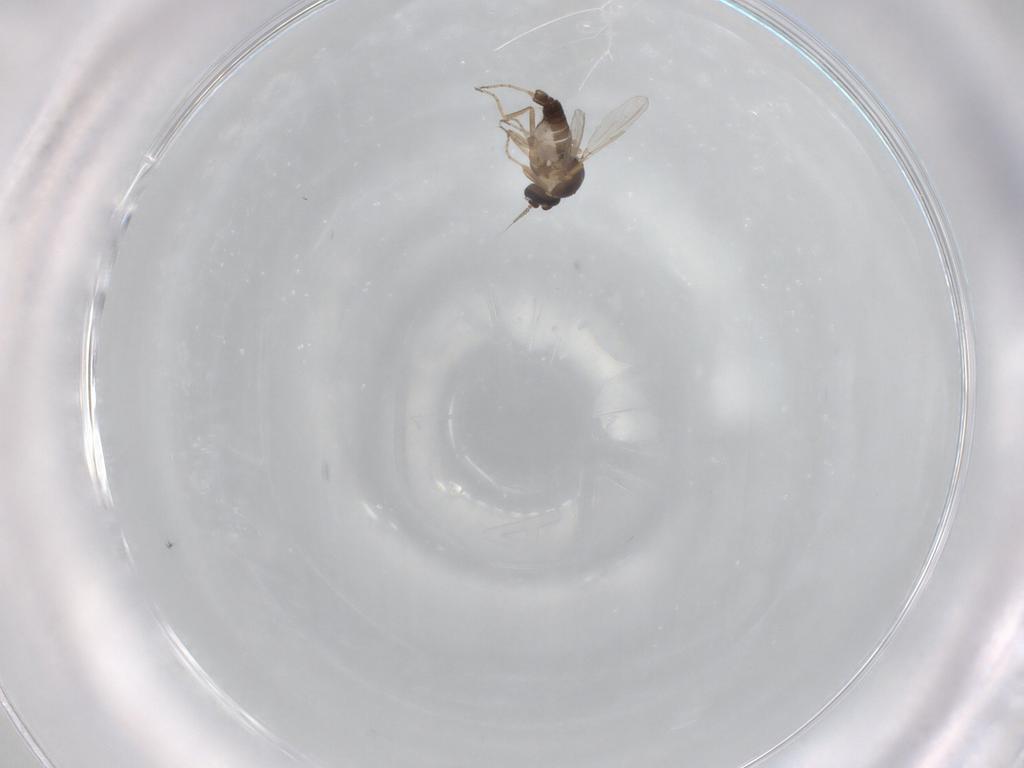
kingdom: Animalia
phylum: Arthropoda
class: Insecta
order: Diptera
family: Ceratopogonidae
